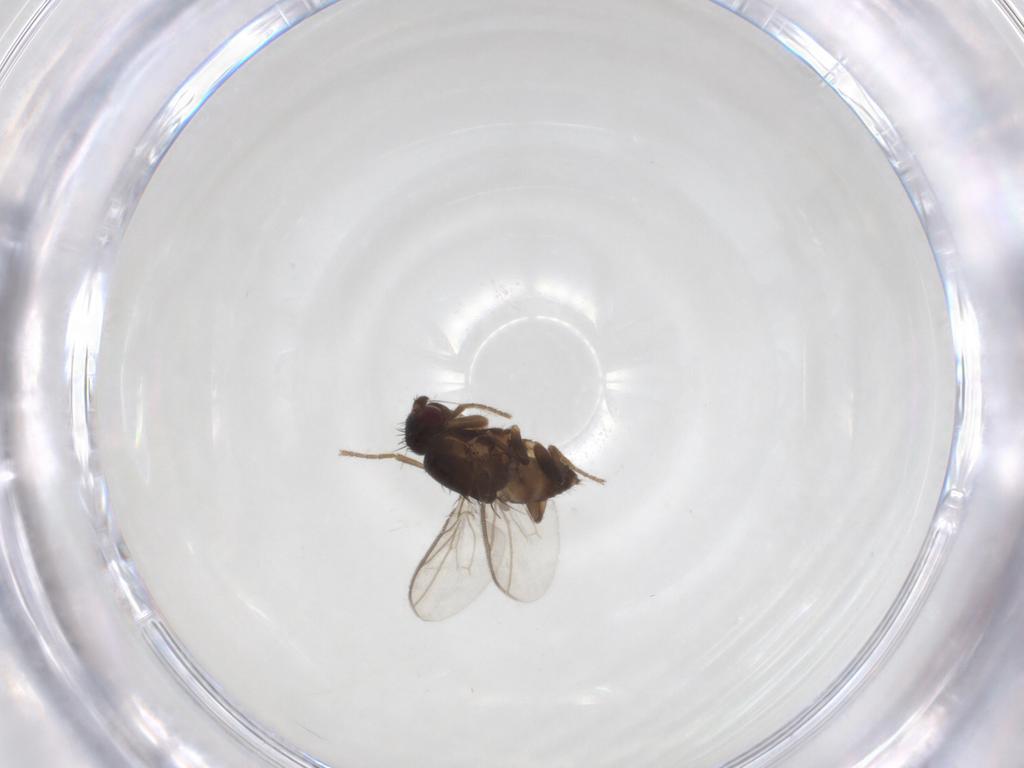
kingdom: Animalia
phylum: Arthropoda
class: Insecta
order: Diptera
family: Sphaeroceridae
